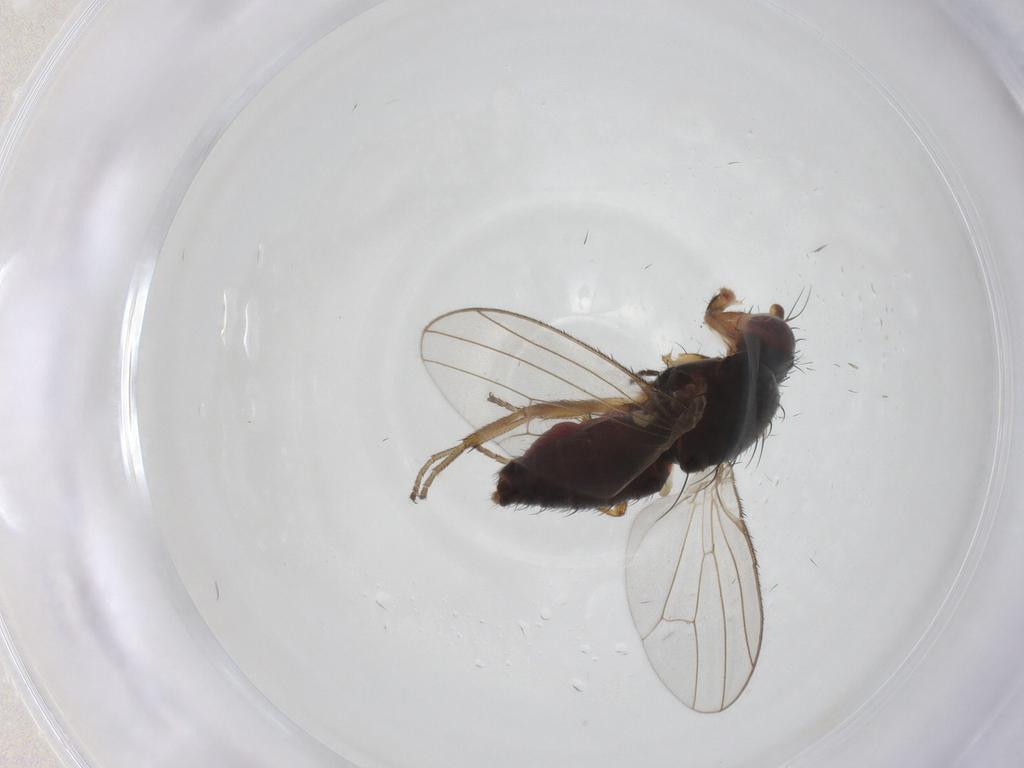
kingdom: Animalia
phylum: Arthropoda
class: Insecta
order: Diptera
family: Heleomyzidae
